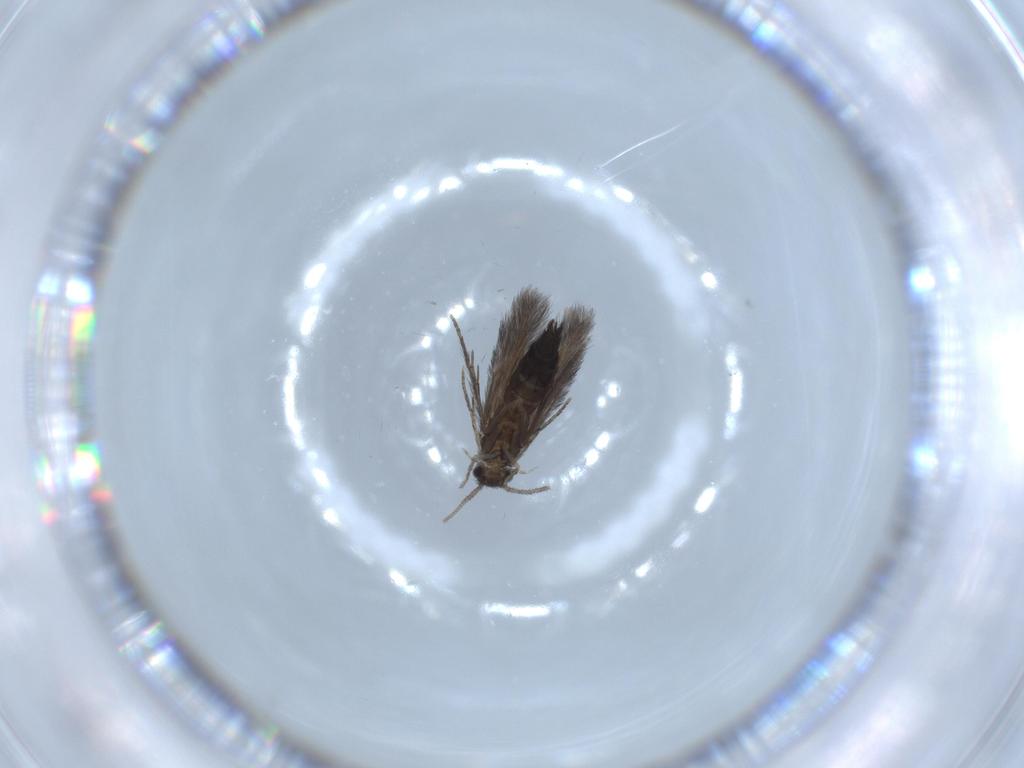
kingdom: Animalia
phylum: Arthropoda
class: Insecta
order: Trichoptera
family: Hydroptilidae
